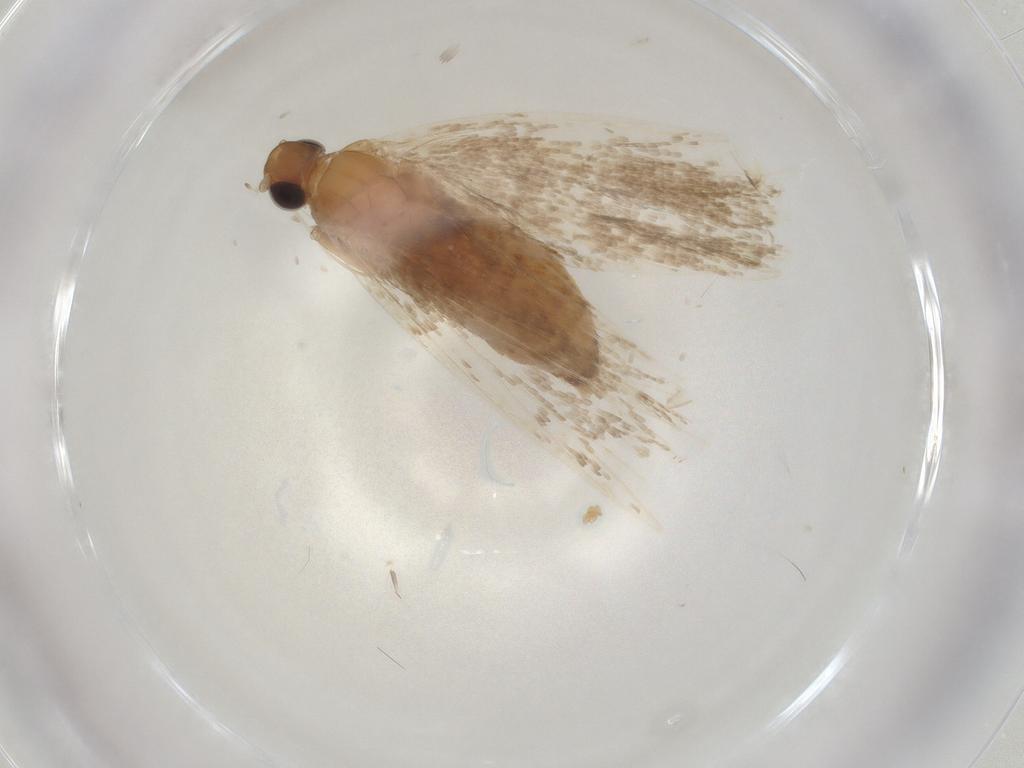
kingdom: Animalia
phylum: Arthropoda
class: Insecta
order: Lepidoptera
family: Lecithoceridae
